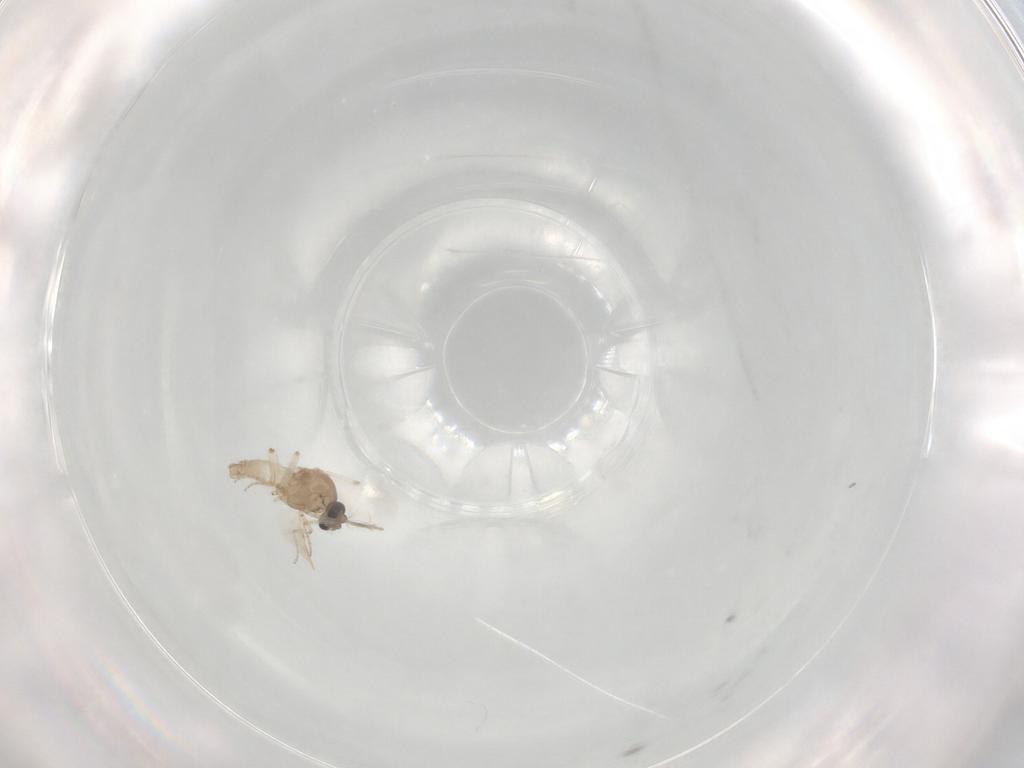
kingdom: Animalia
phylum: Arthropoda
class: Insecta
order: Diptera
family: Ceratopogonidae
